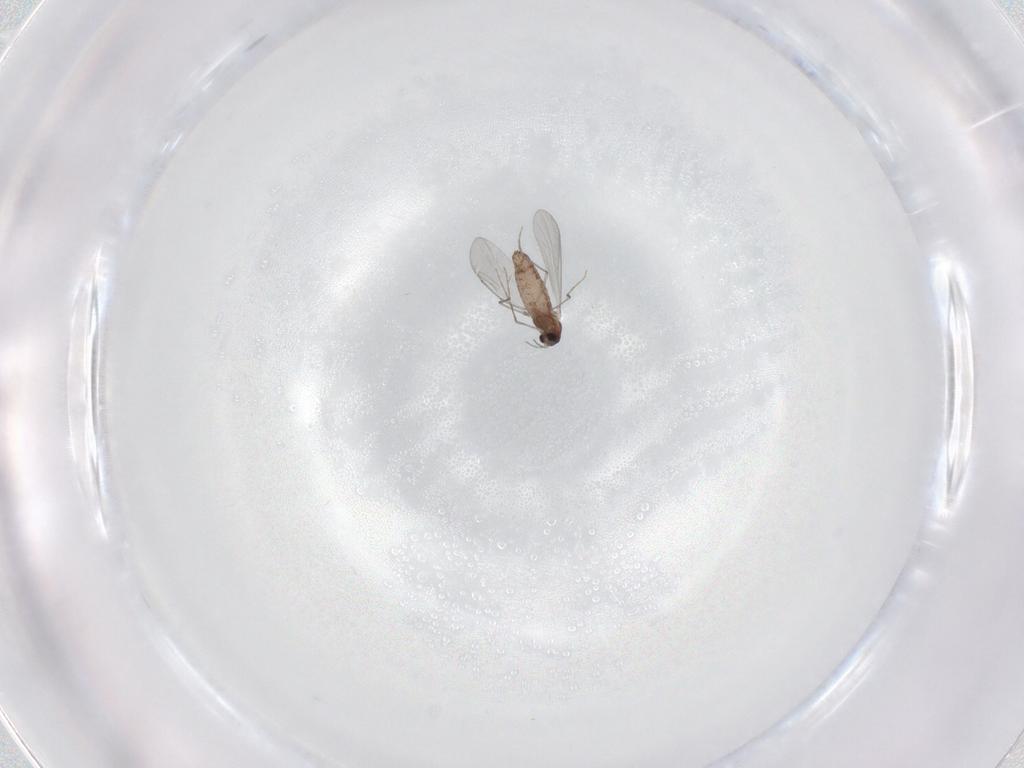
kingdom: Animalia
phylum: Arthropoda
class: Insecta
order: Diptera
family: Chironomidae
